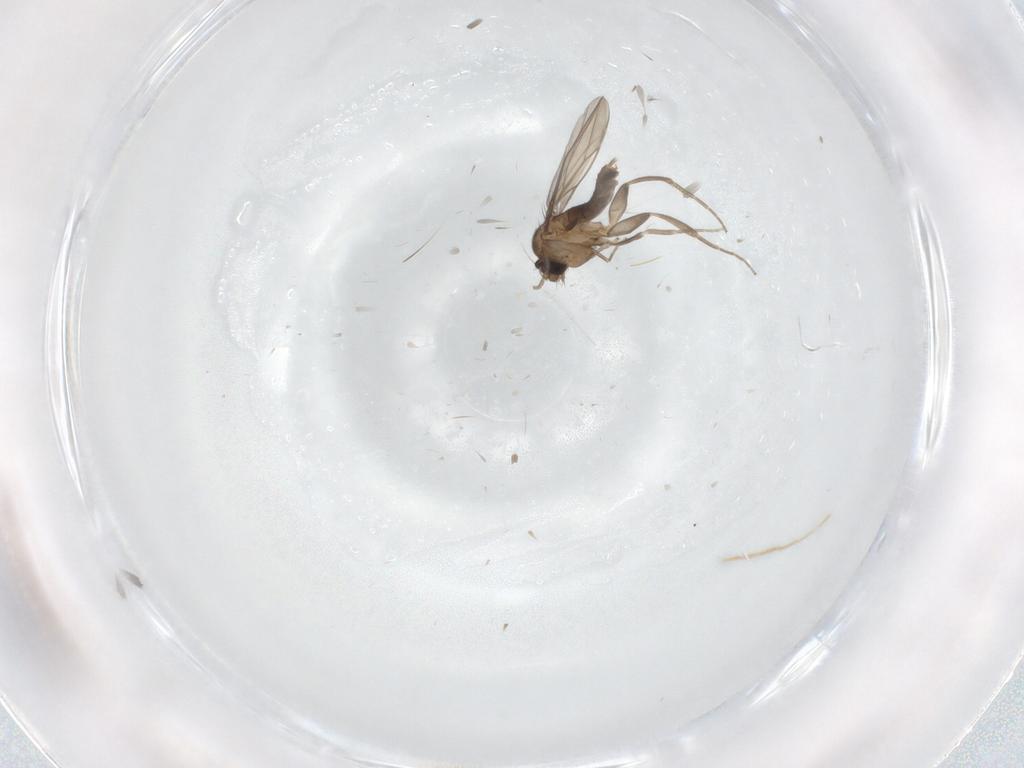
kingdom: Animalia
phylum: Arthropoda
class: Insecta
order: Diptera
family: Phoridae
